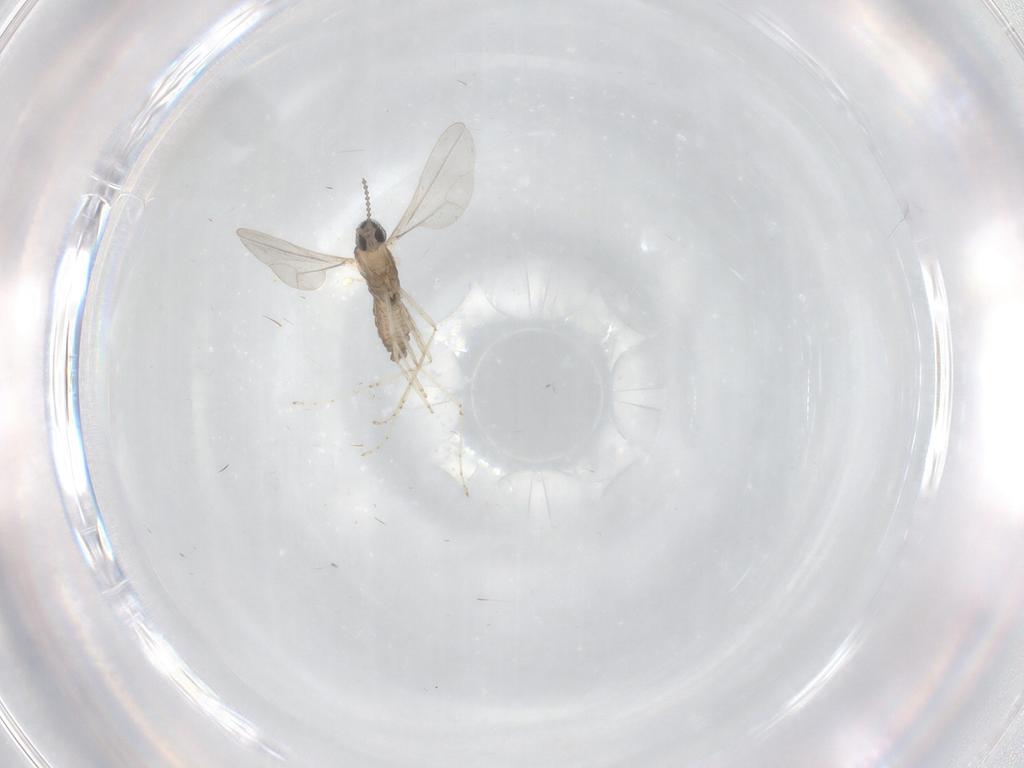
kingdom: Animalia
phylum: Arthropoda
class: Insecta
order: Diptera
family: Cecidomyiidae
